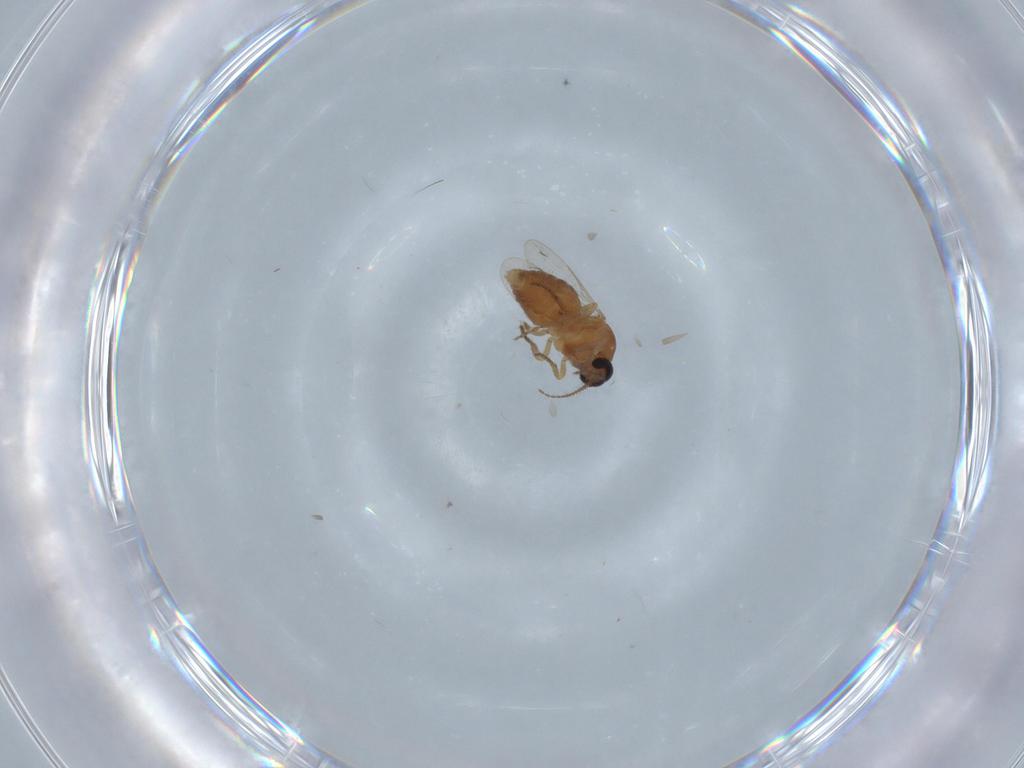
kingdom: Animalia
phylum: Arthropoda
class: Insecta
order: Diptera
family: Ceratopogonidae
